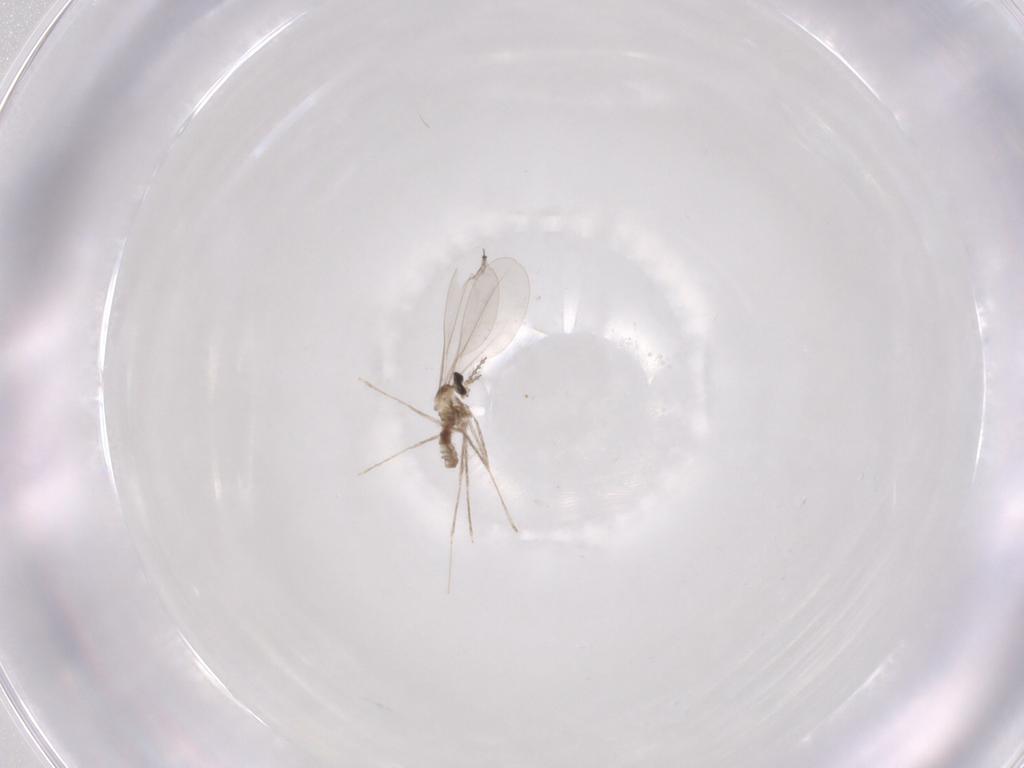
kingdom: Animalia
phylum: Arthropoda
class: Insecta
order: Diptera
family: Cecidomyiidae
